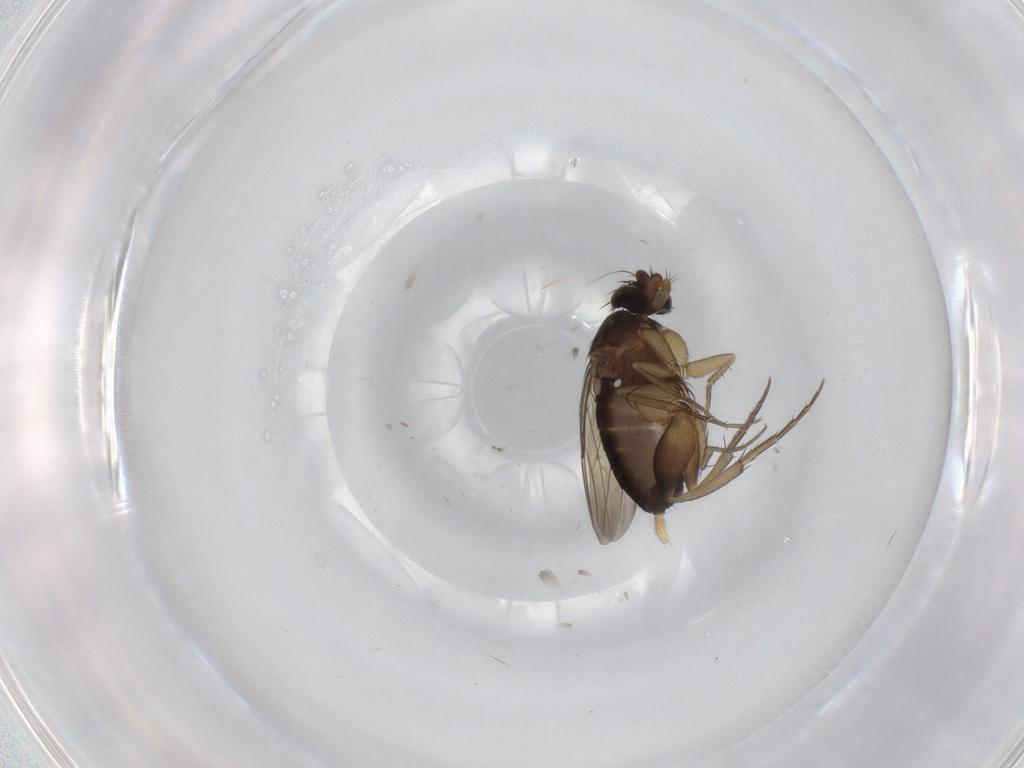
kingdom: Animalia
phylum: Arthropoda
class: Insecta
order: Diptera
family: Phoridae
